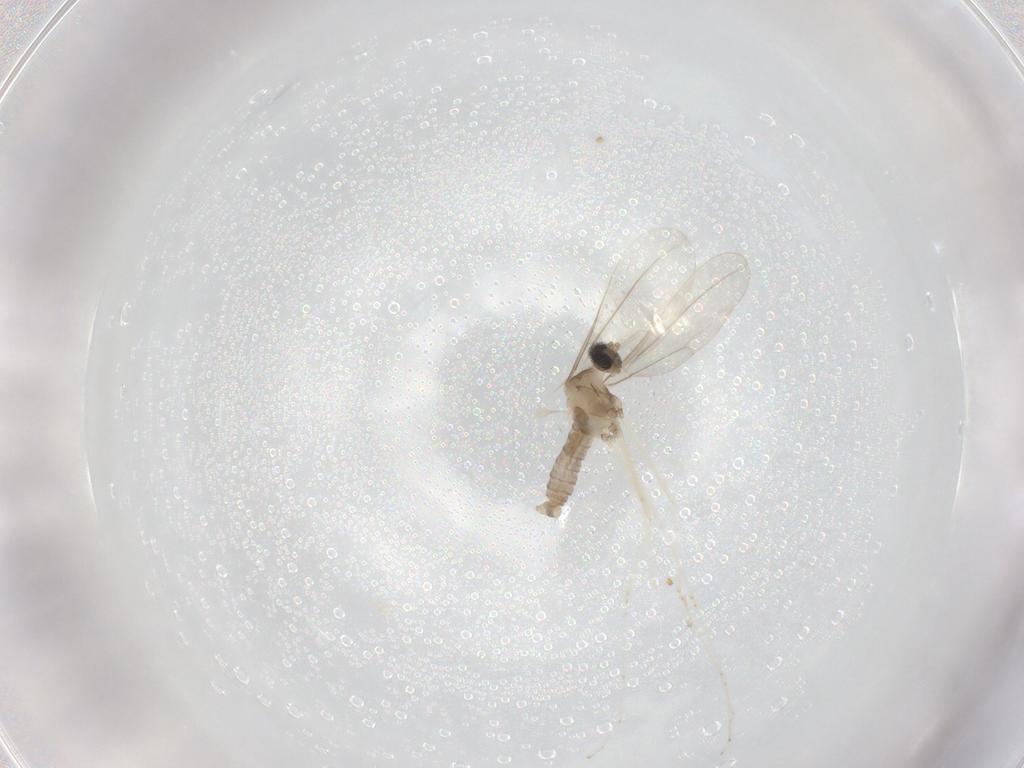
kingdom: Animalia
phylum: Arthropoda
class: Insecta
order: Diptera
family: Cecidomyiidae
